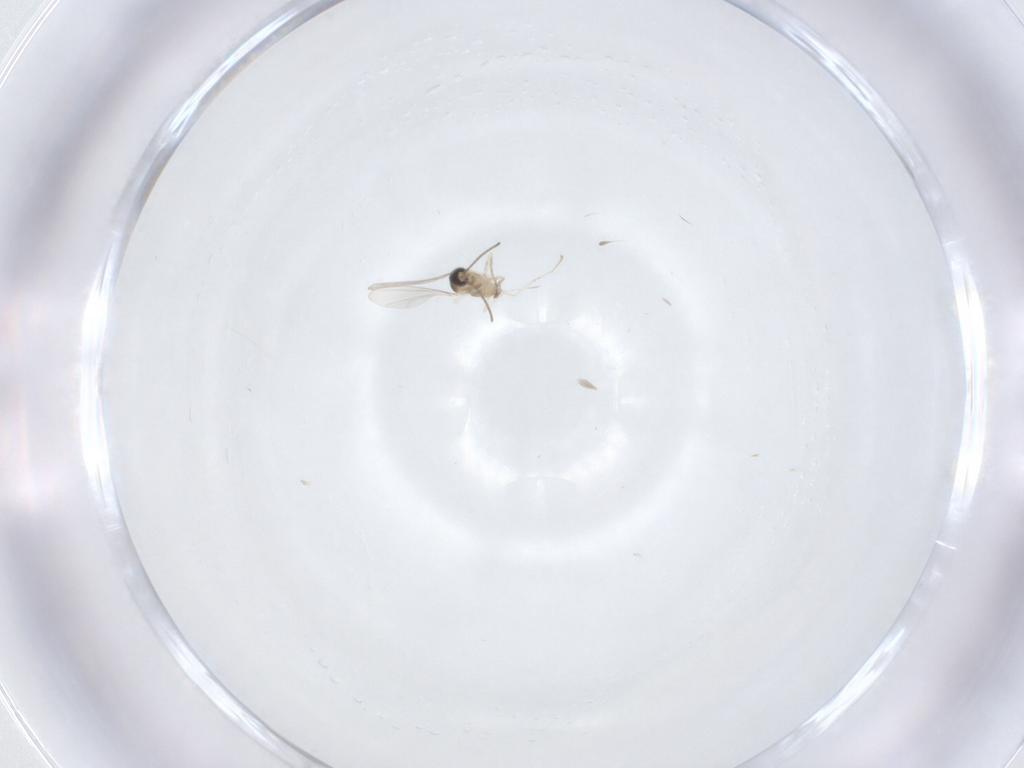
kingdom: Animalia
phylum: Arthropoda
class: Insecta
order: Diptera
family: Cecidomyiidae
